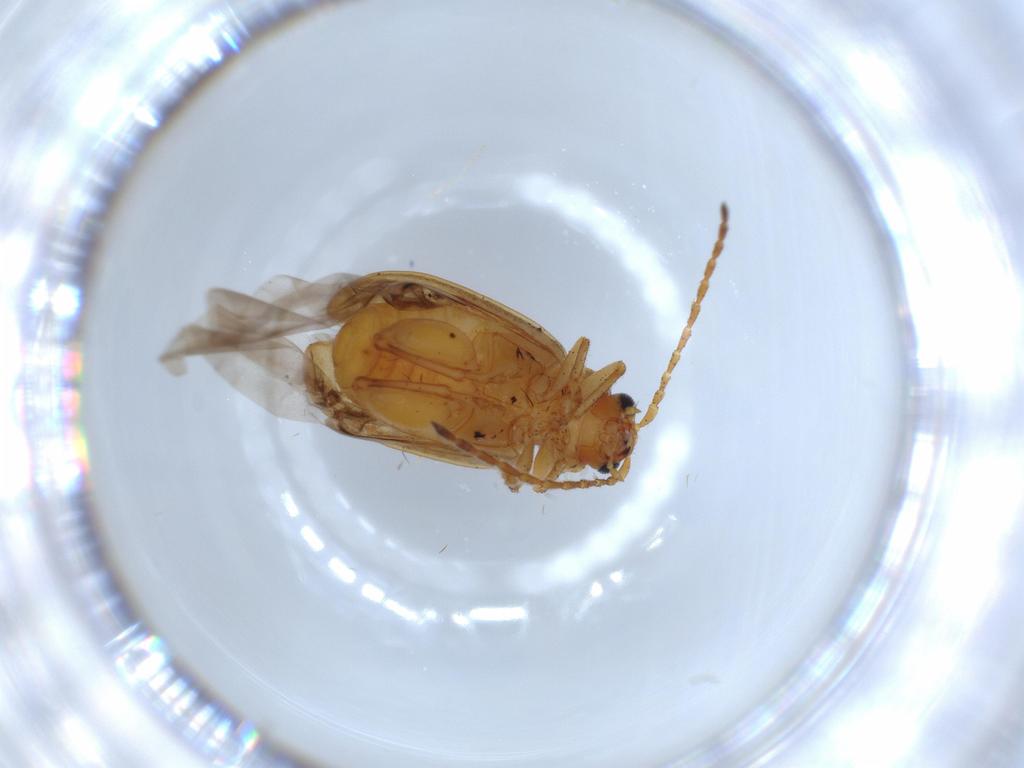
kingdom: Animalia
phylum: Arthropoda
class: Insecta
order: Coleoptera
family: Chrysomelidae
